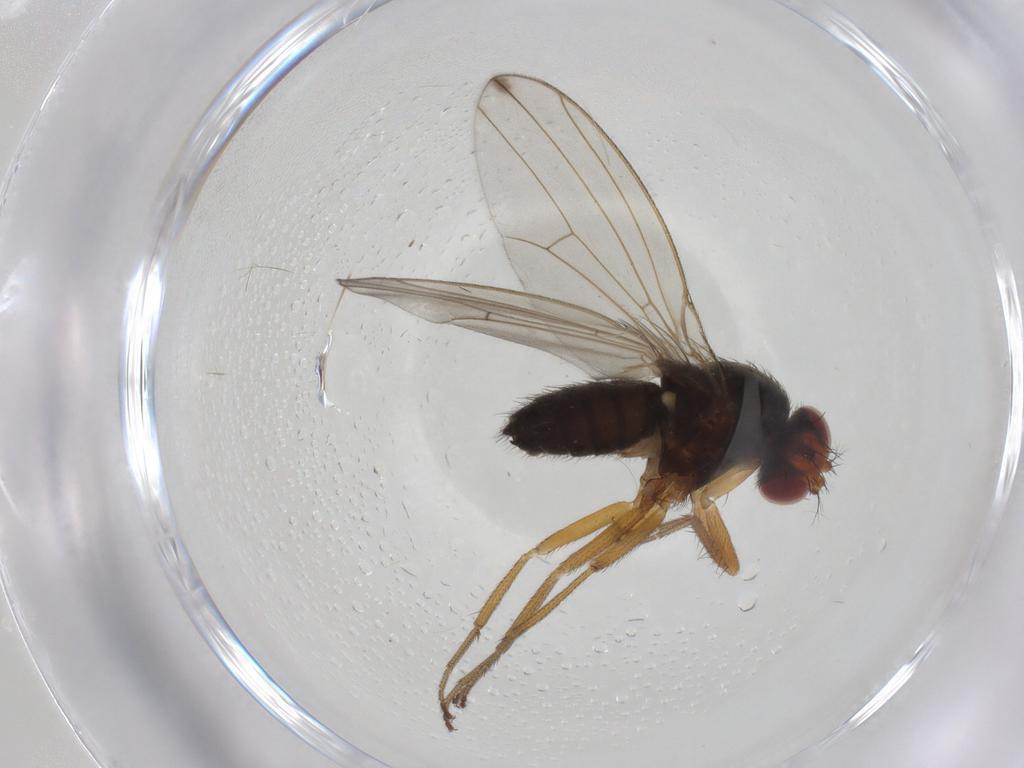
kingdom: Animalia
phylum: Arthropoda
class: Insecta
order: Diptera
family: Drosophilidae
